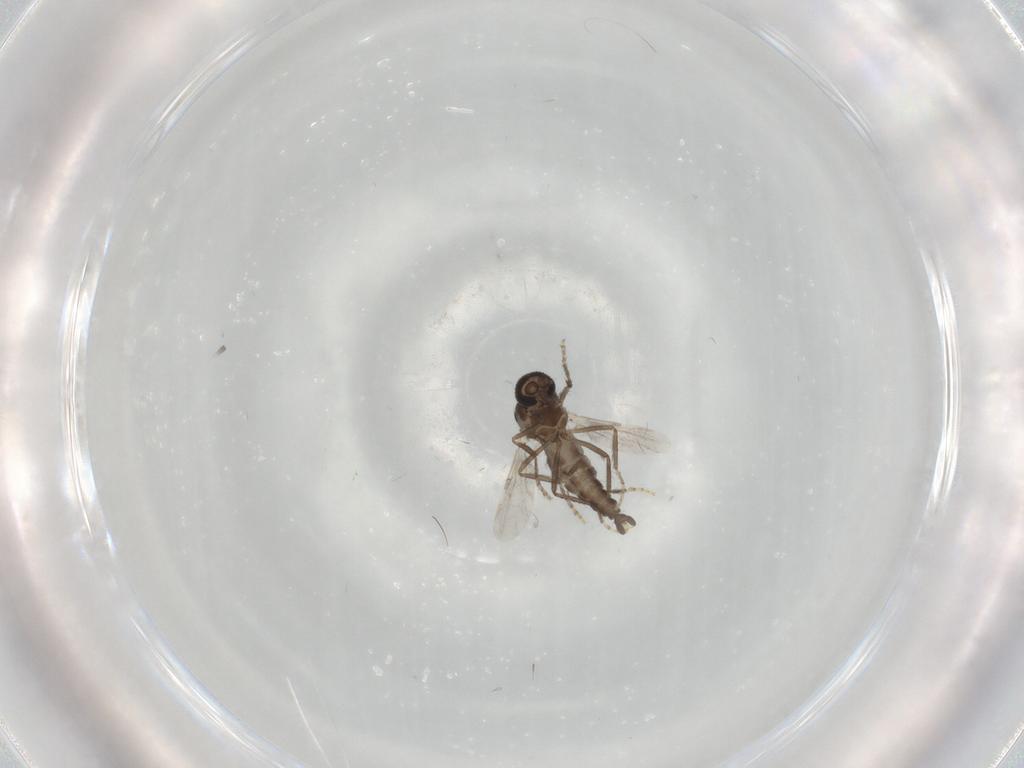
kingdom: Animalia
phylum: Arthropoda
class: Insecta
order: Diptera
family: Ceratopogonidae
